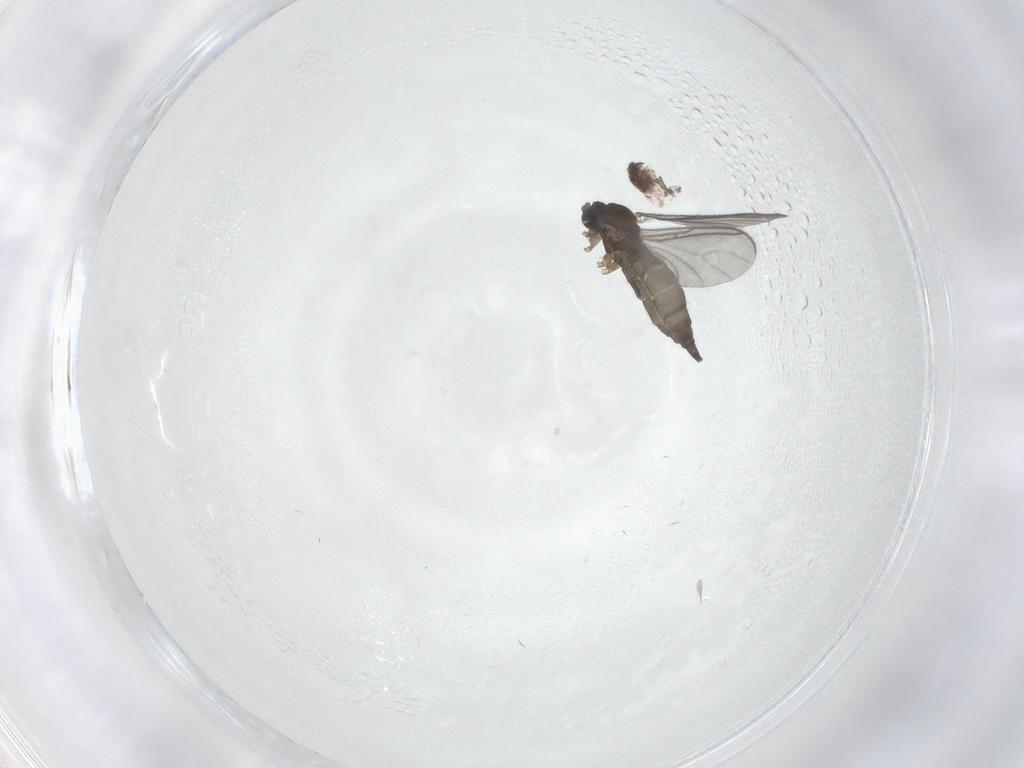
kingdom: Animalia
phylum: Arthropoda
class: Insecta
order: Diptera
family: Sciaridae
